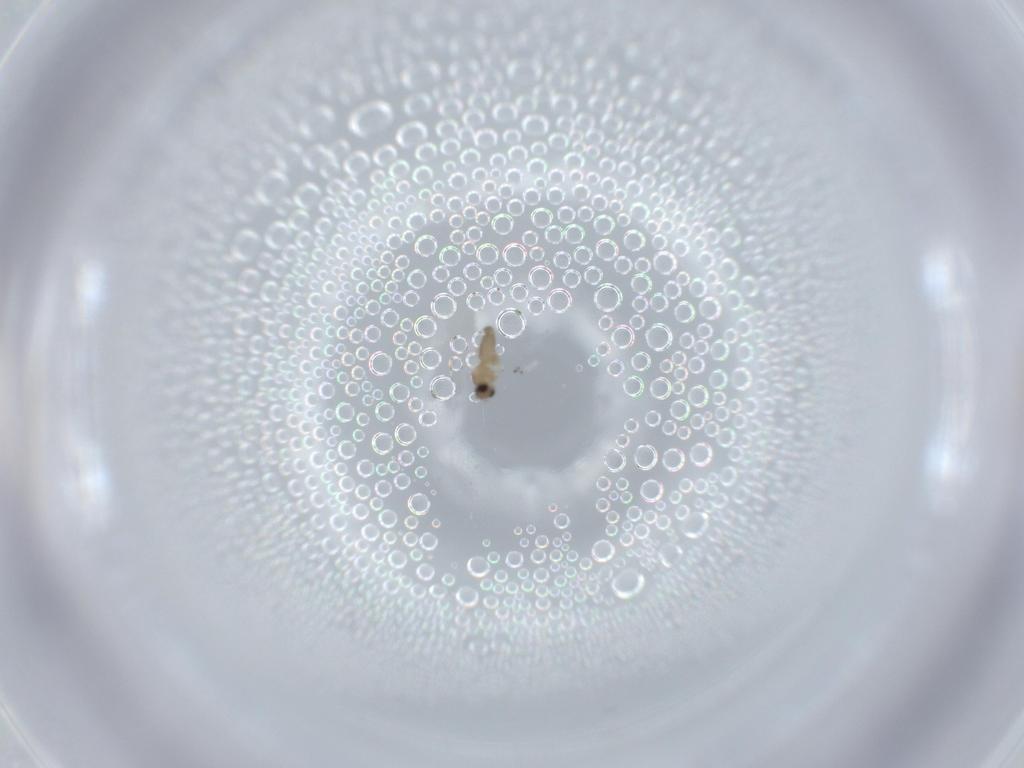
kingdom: Animalia
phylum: Arthropoda
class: Insecta
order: Diptera
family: Cecidomyiidae
